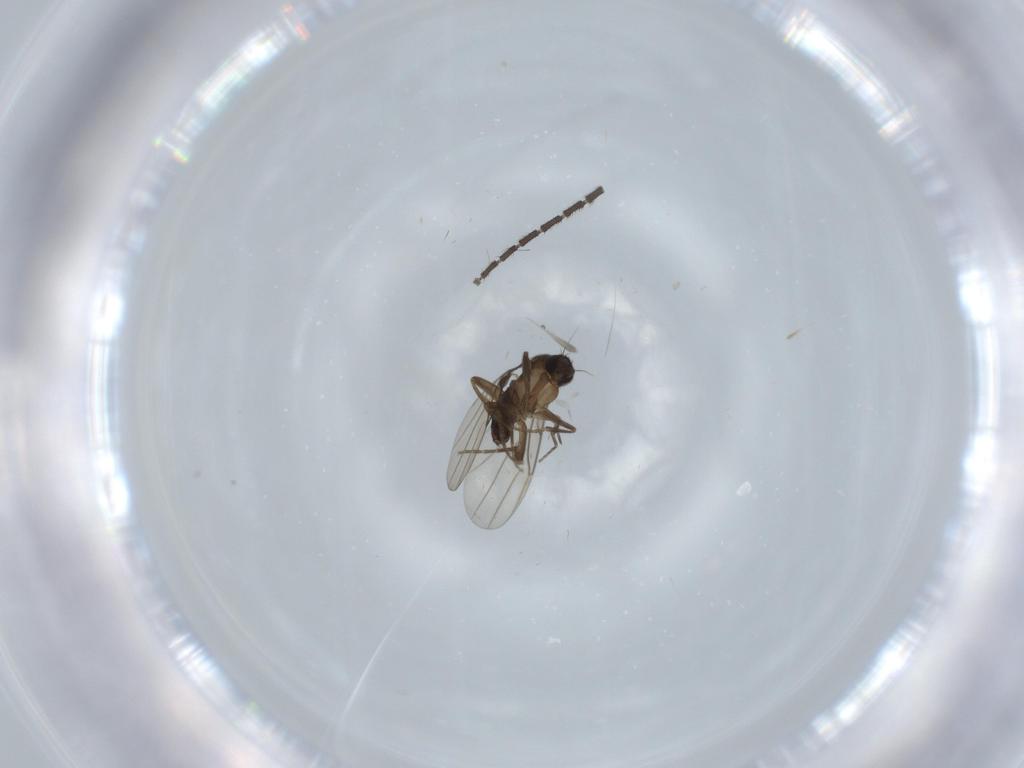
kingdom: Animalia
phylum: Arthropoda
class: Insecta
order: Diptera
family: Phoridae
